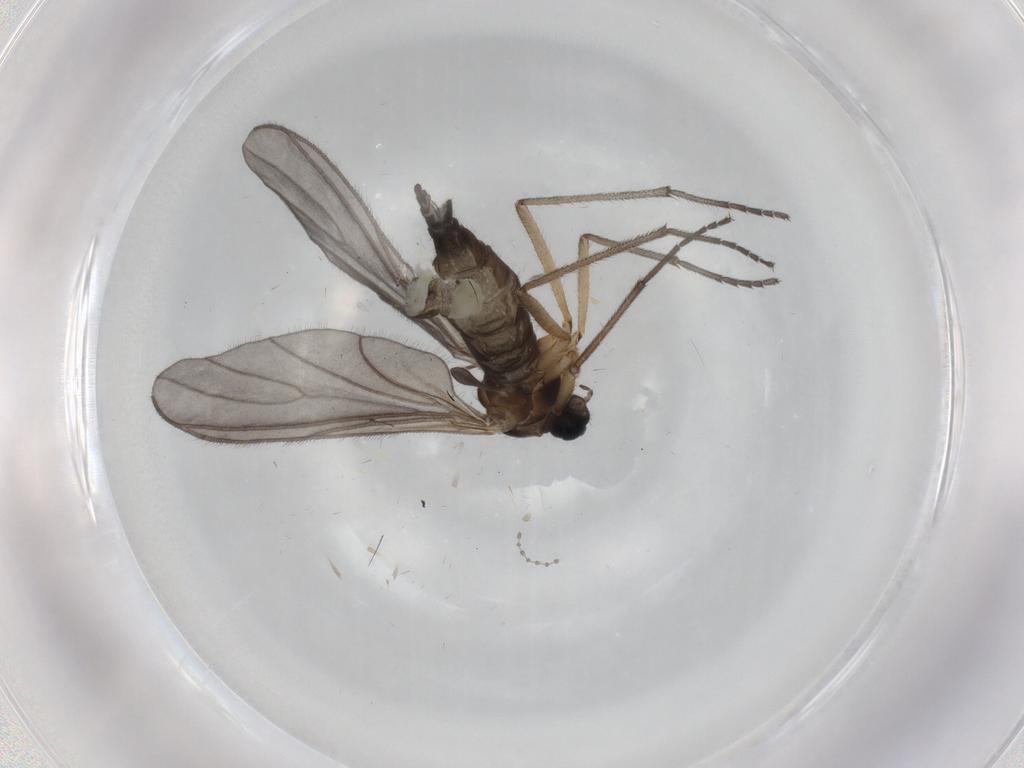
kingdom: Animalia
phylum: Arthropoda
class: Insecta
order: Diptera
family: Sciaridae
